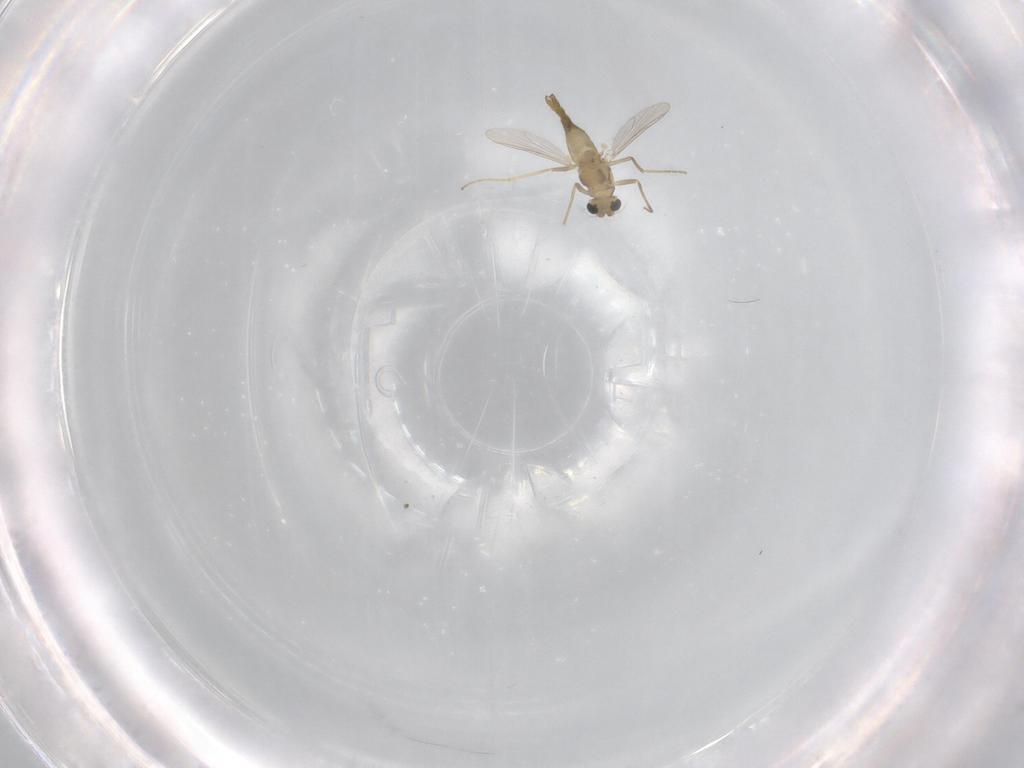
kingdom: Animalia
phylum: Arthropoda
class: Insecta
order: Diptera
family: Chironomidae
